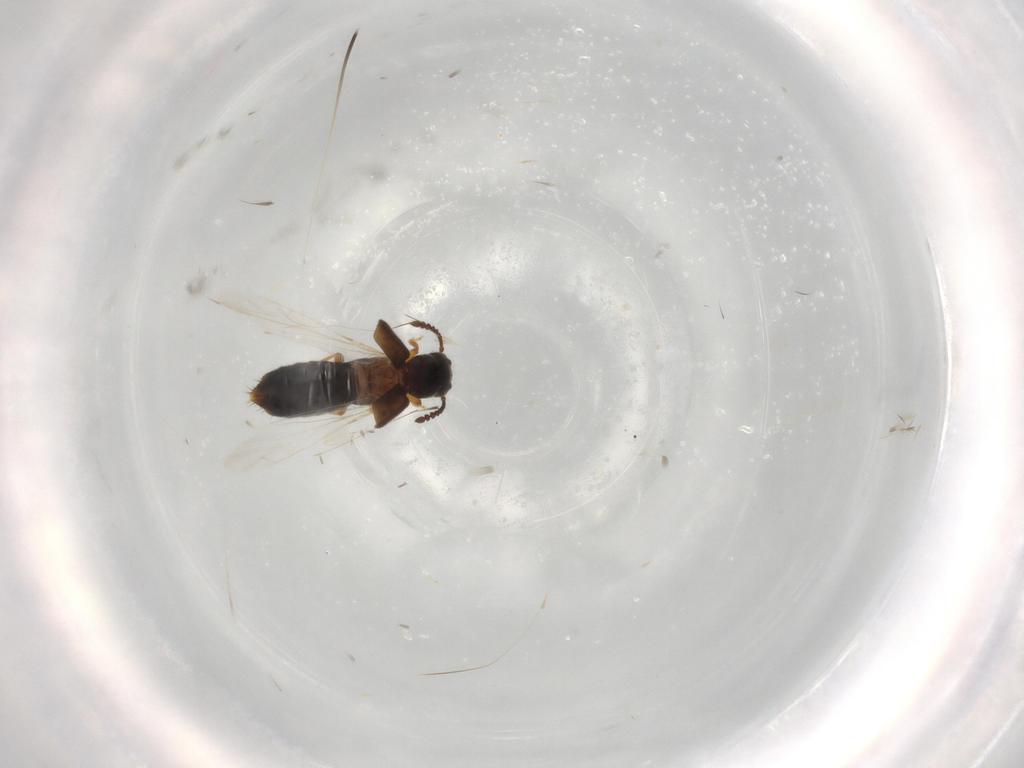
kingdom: Animalia
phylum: Arthropoda
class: Insecta
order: Coleoptera
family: Staphylinidae
